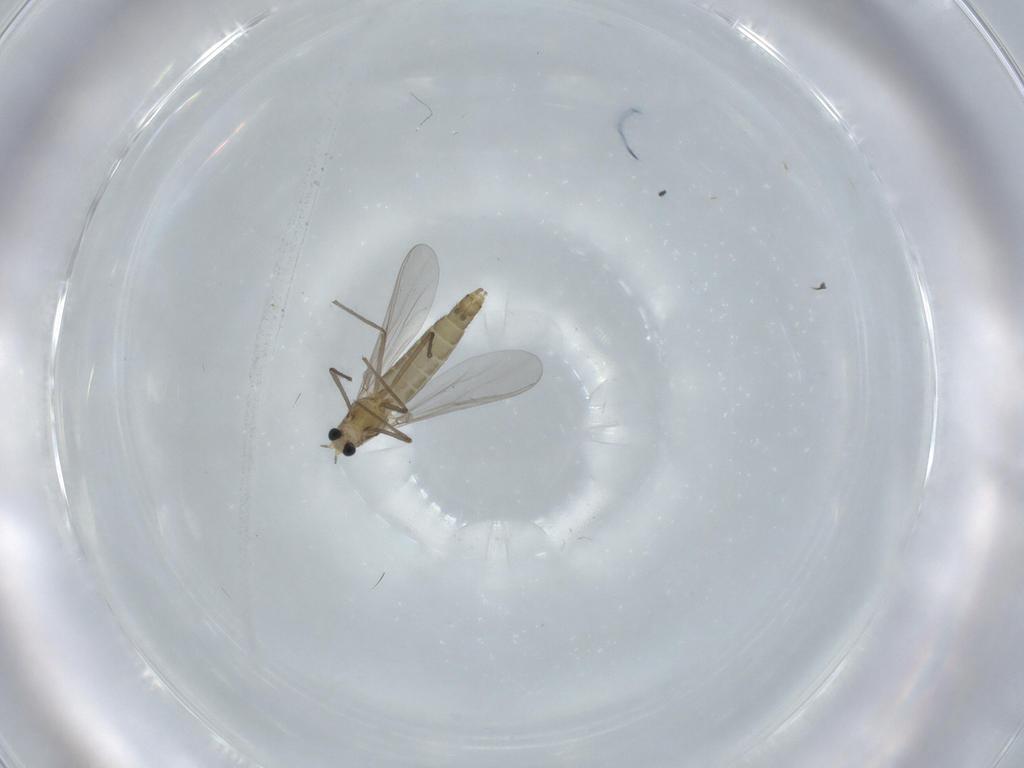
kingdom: Animalia
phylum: Arthropoda
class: Insecta
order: Diptera
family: Chironomidae
